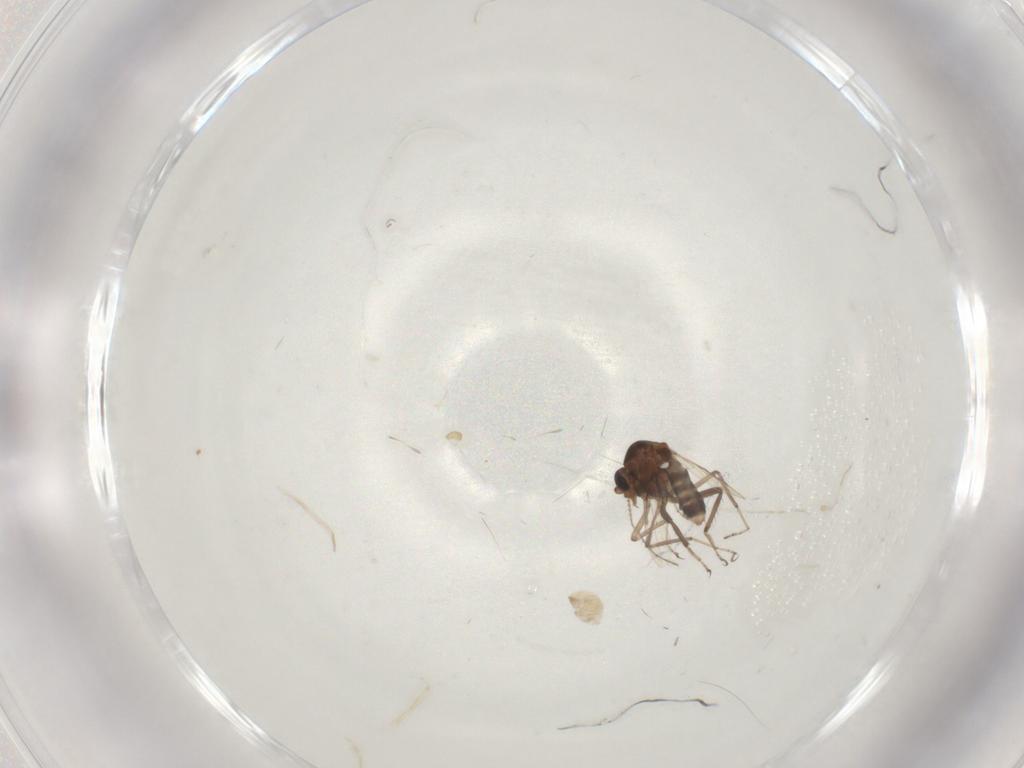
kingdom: Animalia
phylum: Arthropoda
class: Insecta
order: Diptera
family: Ceratopogonidae
